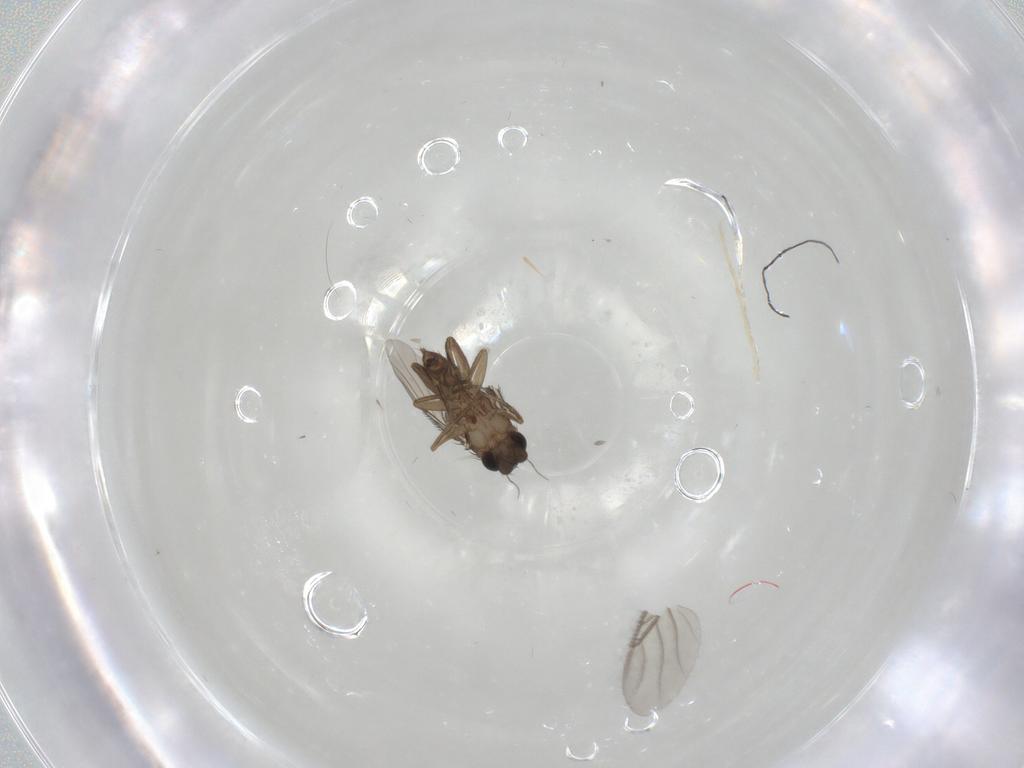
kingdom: Animalia
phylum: Arthropoda
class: Insecta
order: Diptera
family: Phoridae
